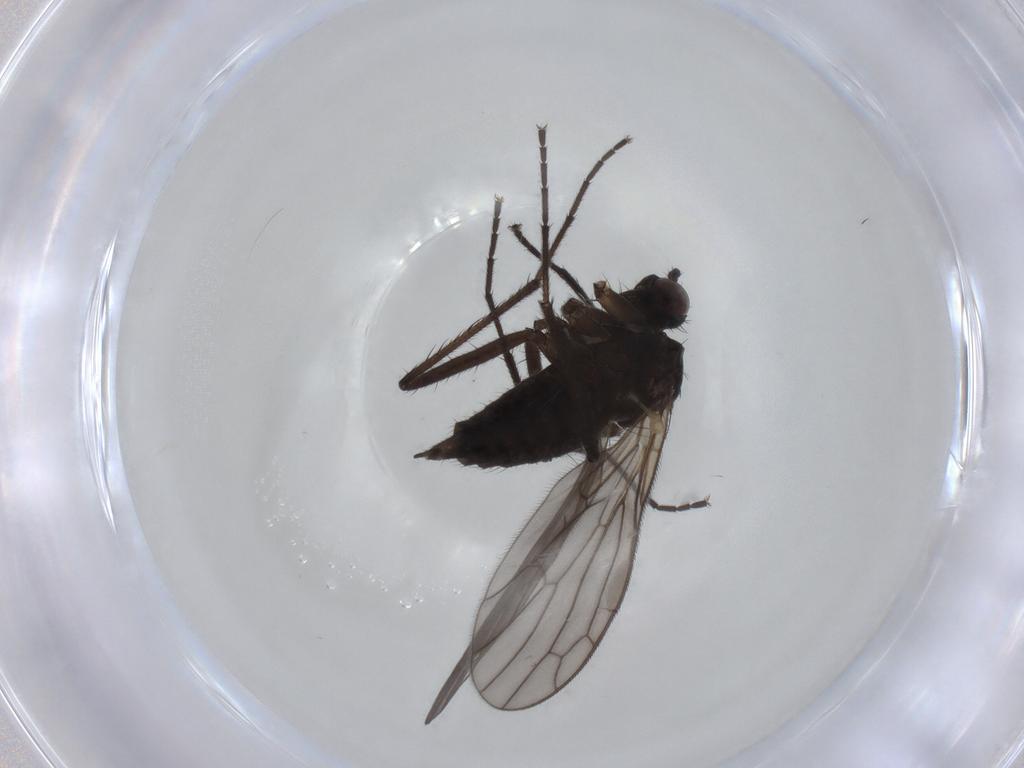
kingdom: Animalia
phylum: Arthropoda
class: Insecta
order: Diptera
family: Empididae
